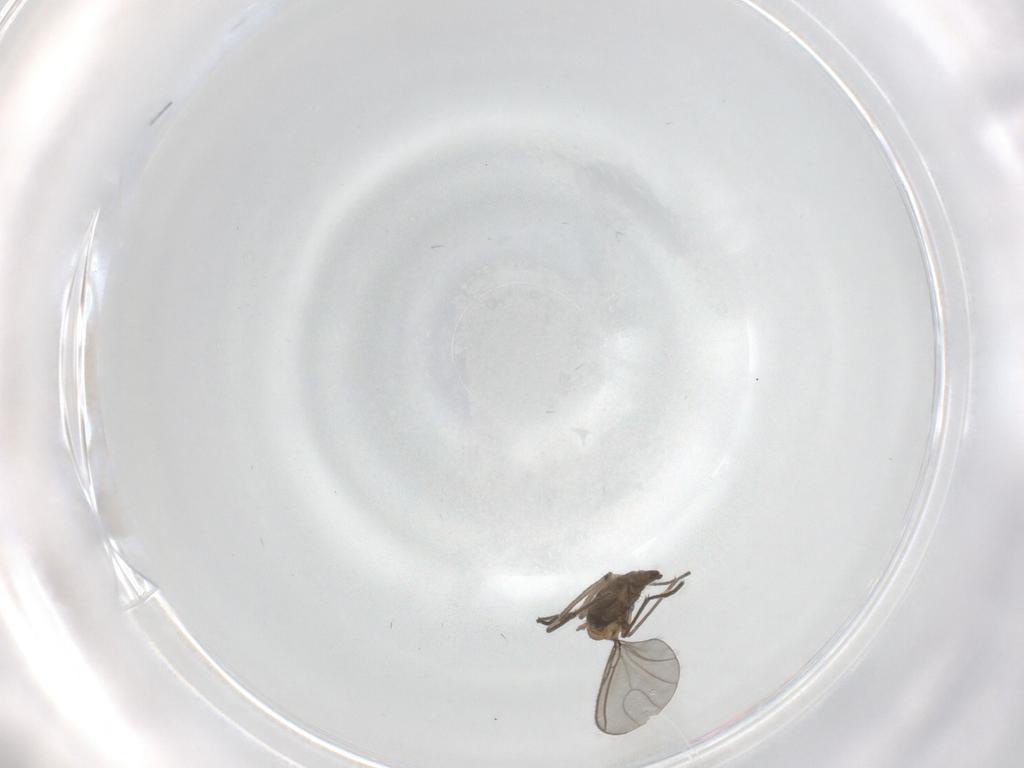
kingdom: Animalia
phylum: Arthropoda
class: Insecta
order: Diptera
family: Sciaridae
